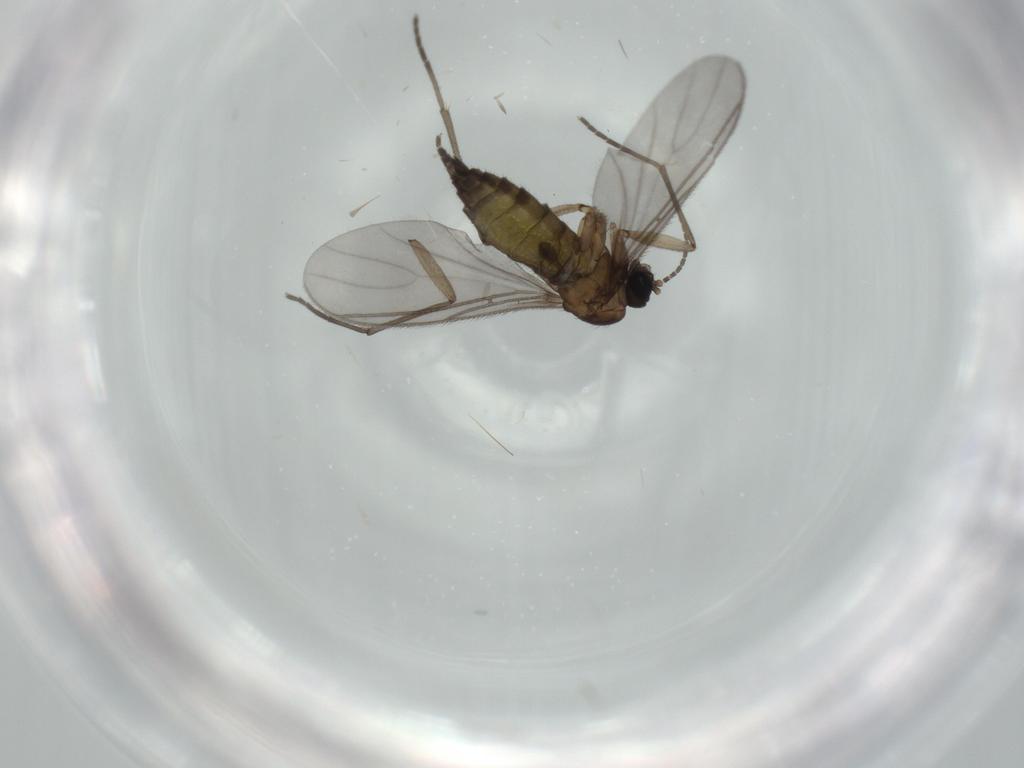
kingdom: Animalia
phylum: Arthropoda
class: Insecta
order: Diptera
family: Sciaridae
